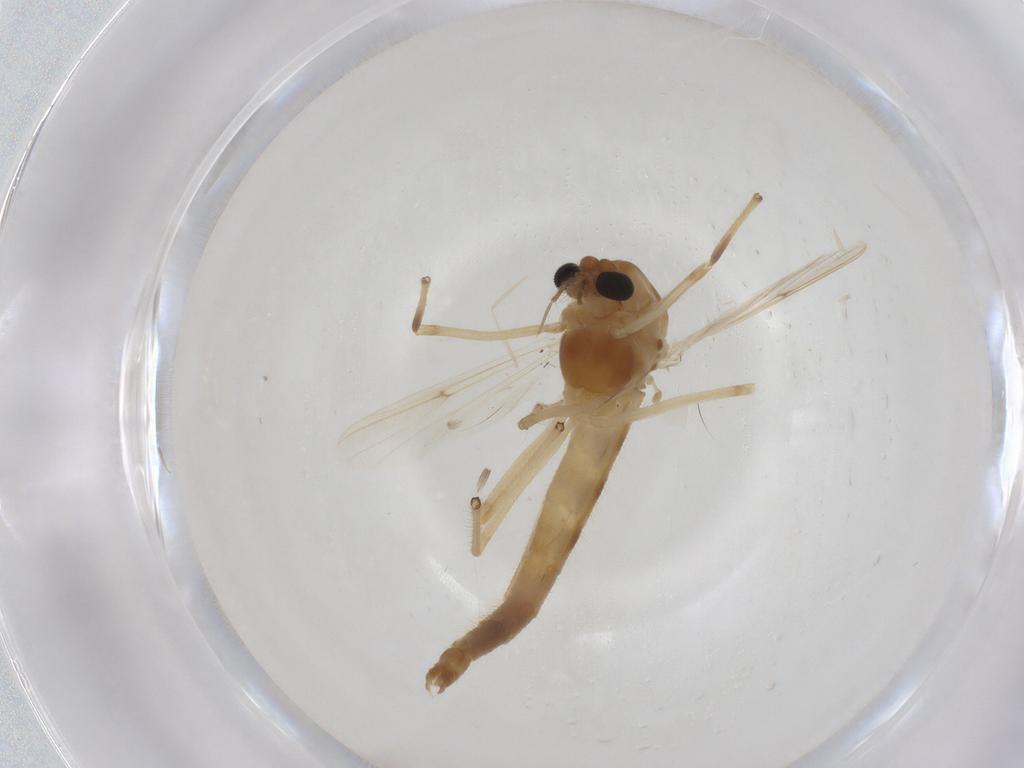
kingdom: Animalia
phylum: Arthropoda
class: Insecta
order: Diptera
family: Chironomidae
